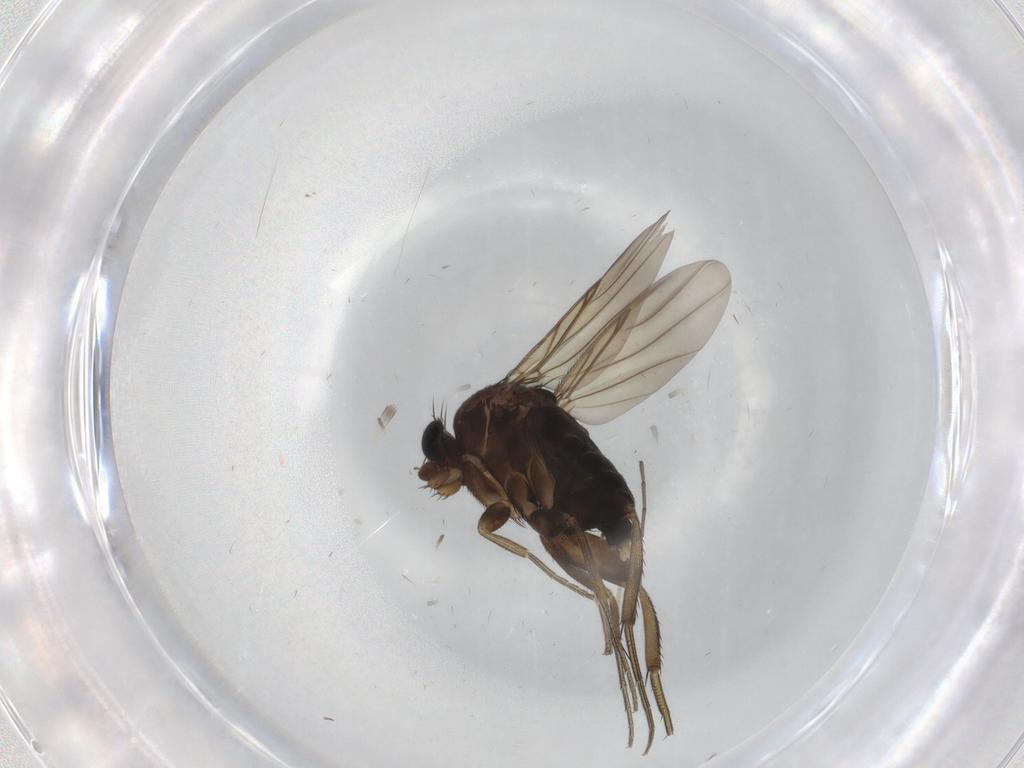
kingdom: Animalia
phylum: Arthropoda
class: Insecta
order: Diptera
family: Phoridae
